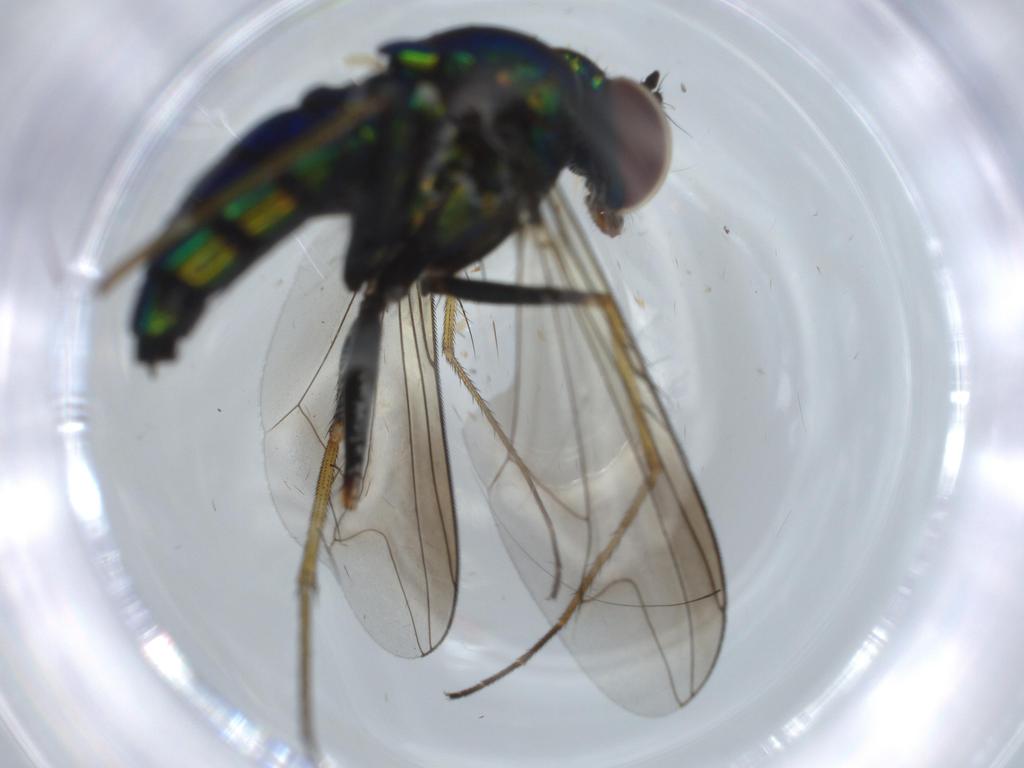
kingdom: Animalia
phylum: Arthropoda
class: Insecta
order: Diptera
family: Dolichopodidae
